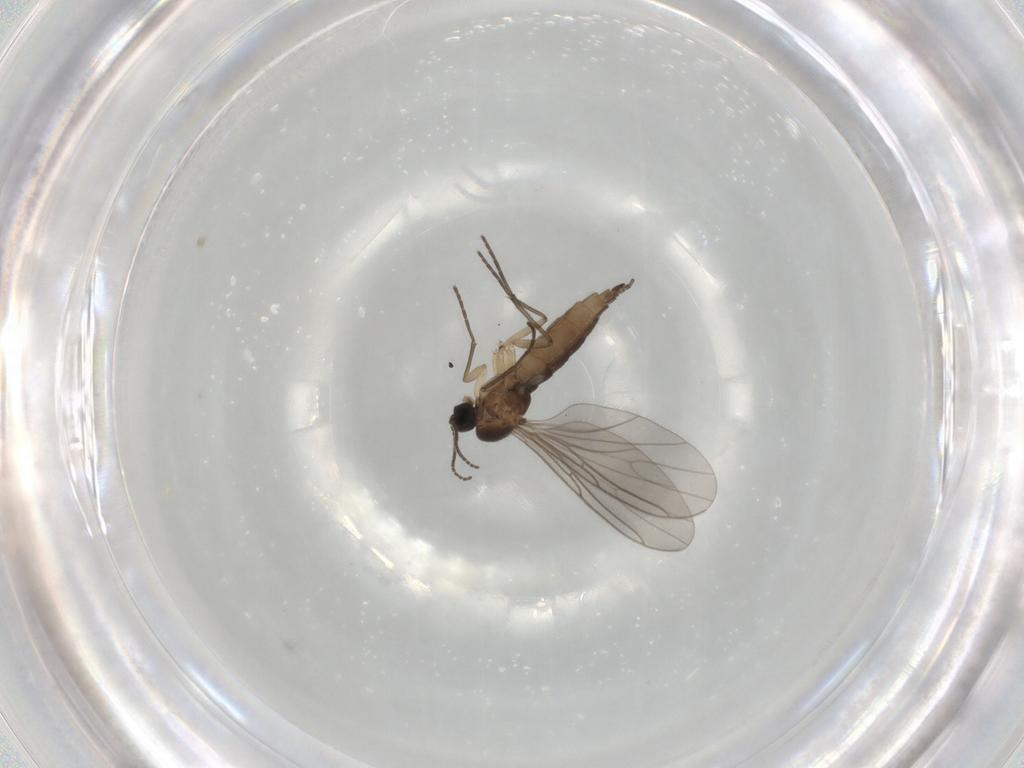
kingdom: Animalia
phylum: Arthropoda
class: Insecta
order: Diptera
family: Sciaridae
